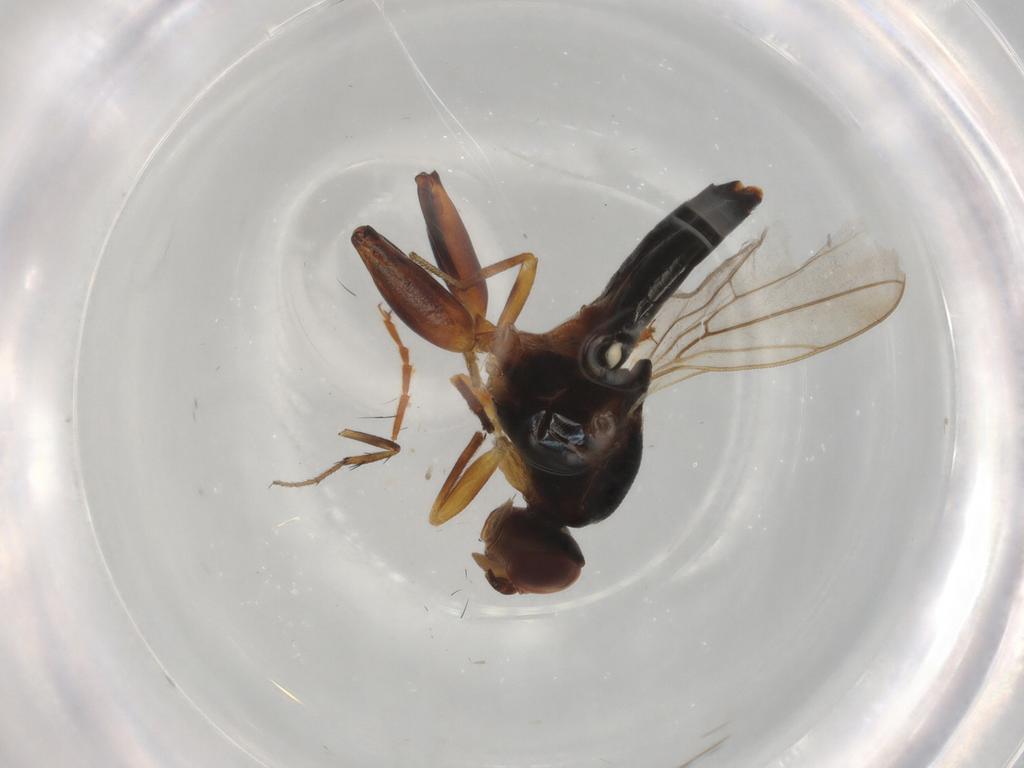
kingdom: Animalia
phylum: Arthropoda
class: Insecta
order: Diptera
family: Chloropidae
